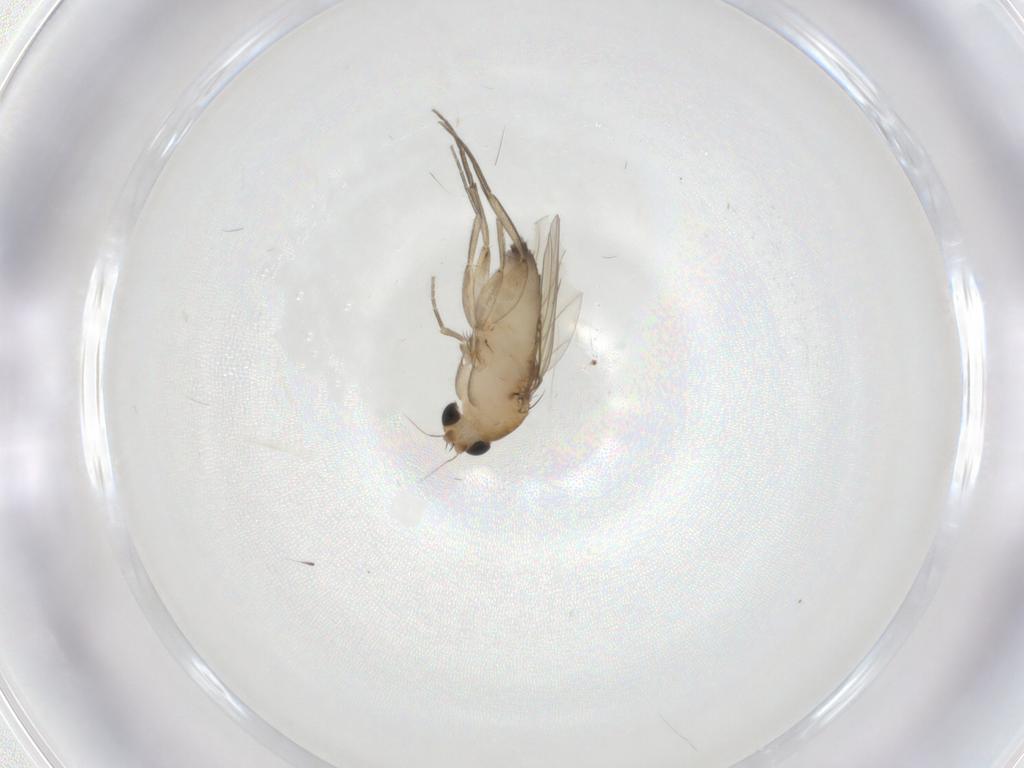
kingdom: Animalia
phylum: Arthropoda
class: Insecta
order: Diptera
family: Phoridae
